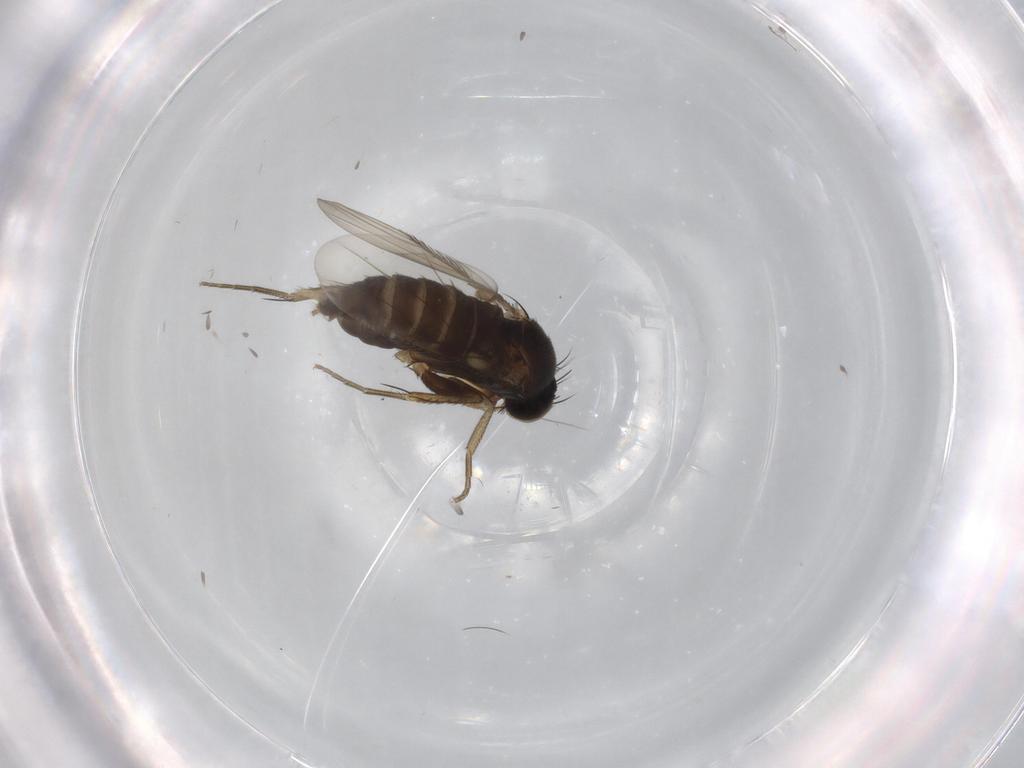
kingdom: Animalia
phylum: Arthropoda
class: Insecta
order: Diptera
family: Phoridae
